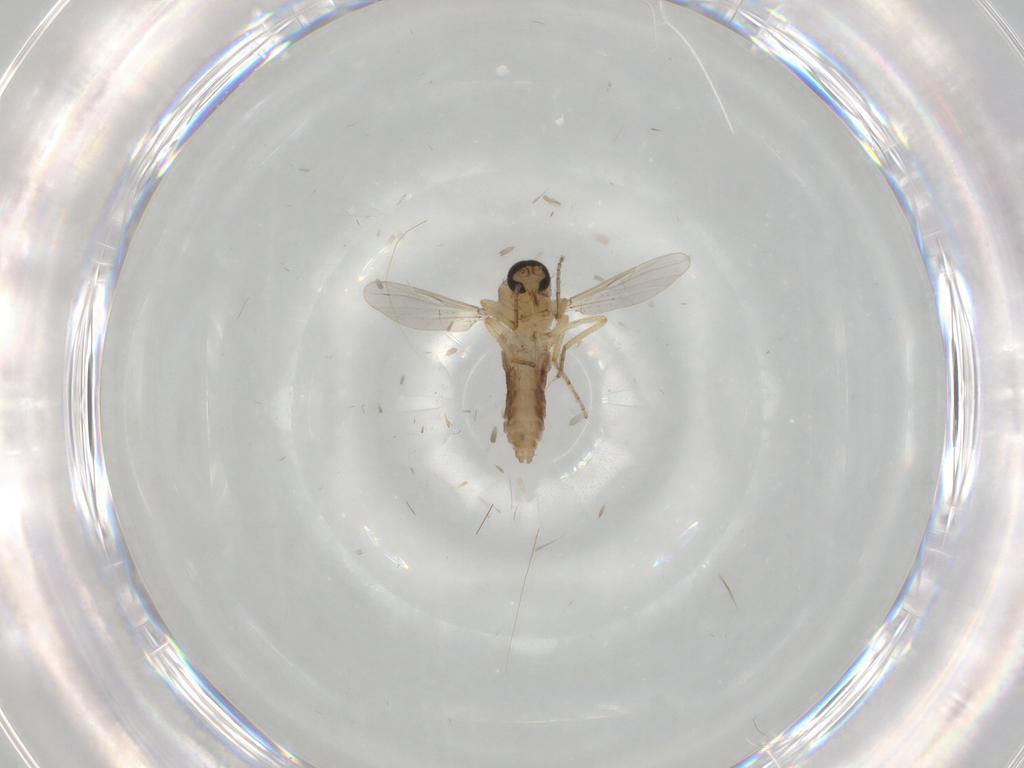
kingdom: Animalia
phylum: Arthropoda
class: Insecta
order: Diptera
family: Ceratopogonidae
